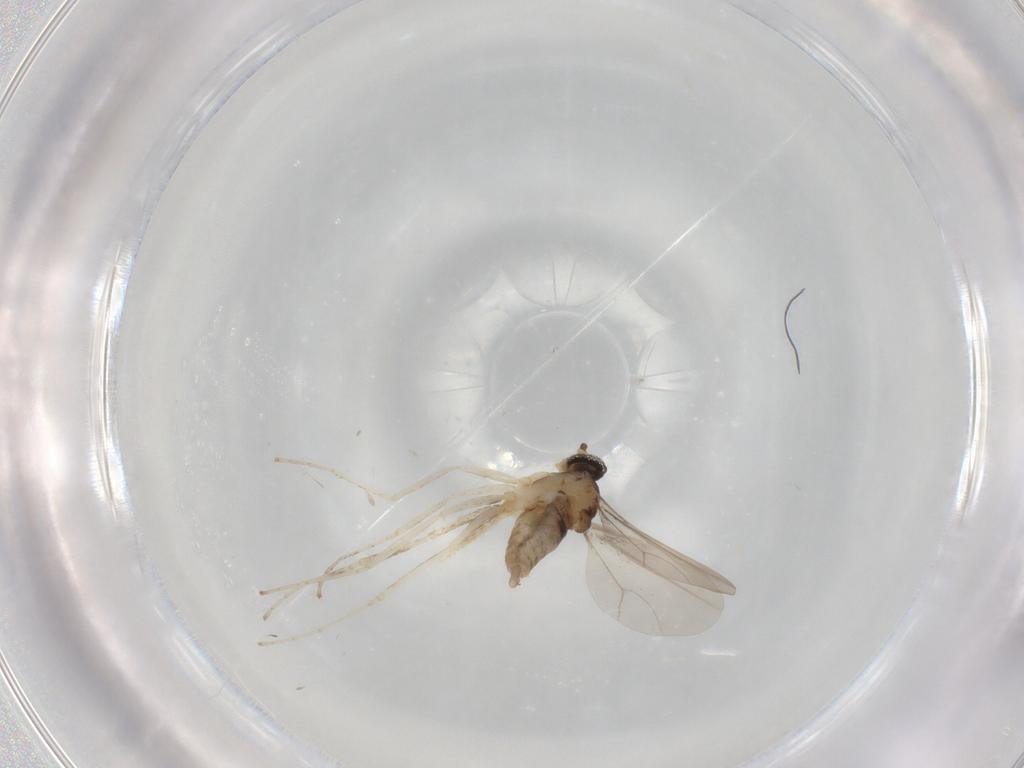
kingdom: Animalia
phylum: Arthropoda
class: Insecta
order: Diptera
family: Limoniidae
